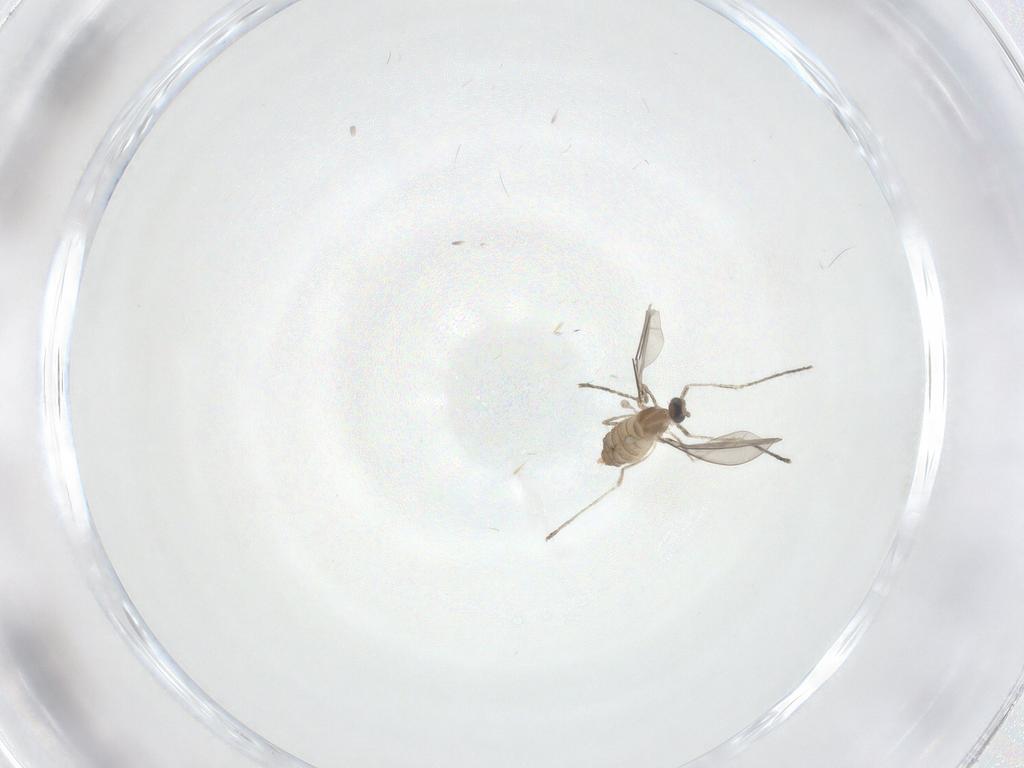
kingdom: Animalia
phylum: Arthropoda
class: Insecta
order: Diptera
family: Cecidomyiidae
